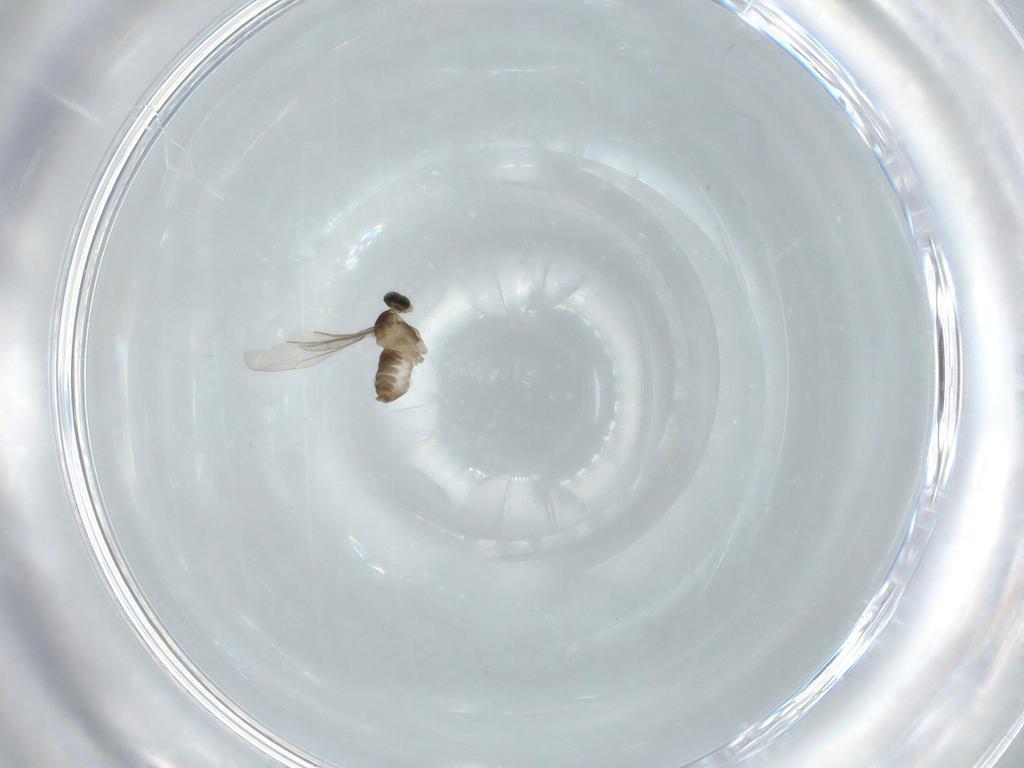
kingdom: Animalia
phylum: Arthropoda
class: Insecta
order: Diptera
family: Cecidomyiidae
